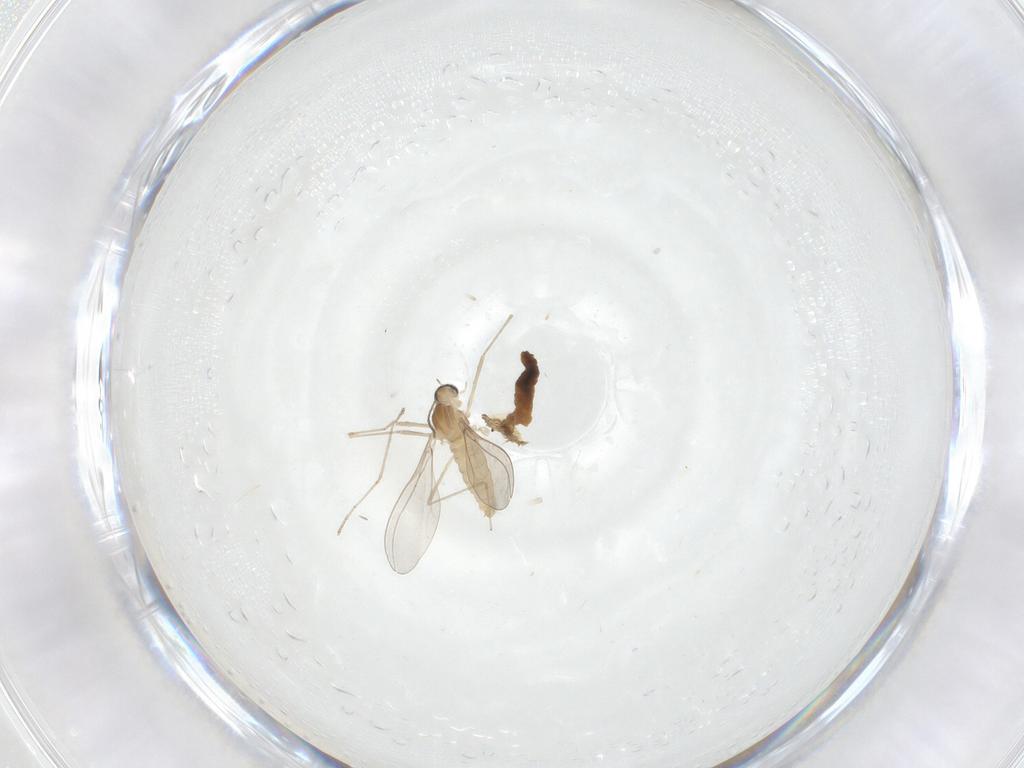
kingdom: Animalia
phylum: Arthropoda
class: Insecta
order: Diptera
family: Cecidomyiidae
